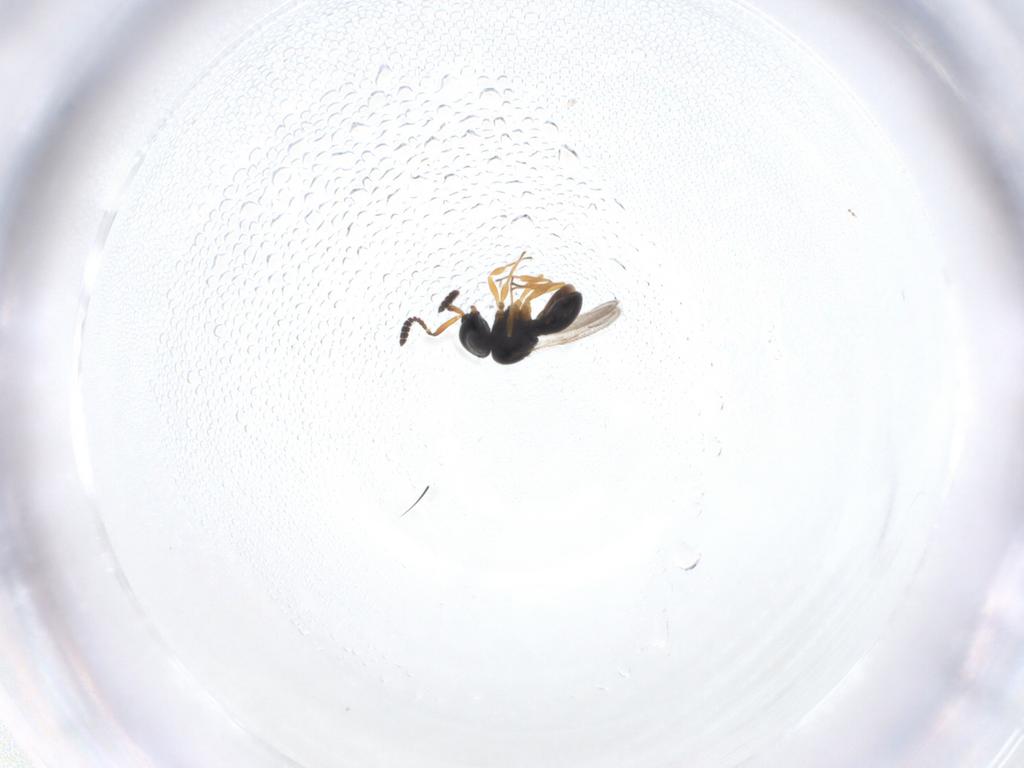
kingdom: Animalia
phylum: Arthropoda
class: Insecta
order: Hymenoptera
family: Scelionidae
